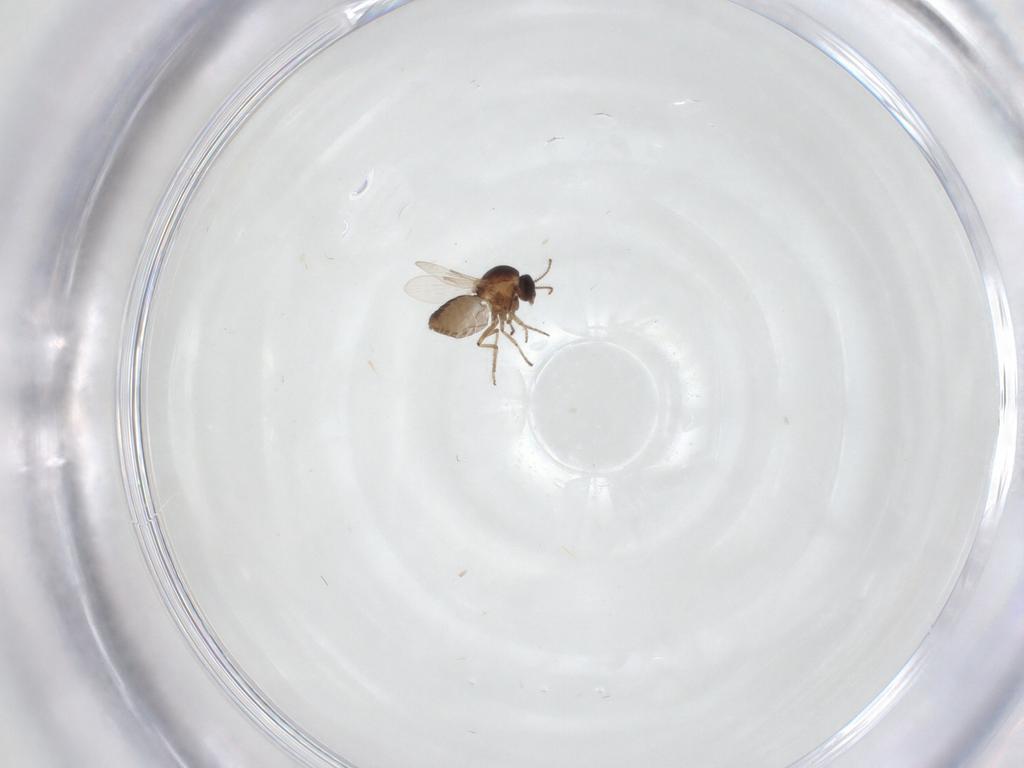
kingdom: Animalia
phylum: Arthropoda
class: Insecta
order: Diptera
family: Ceratopogonidae
